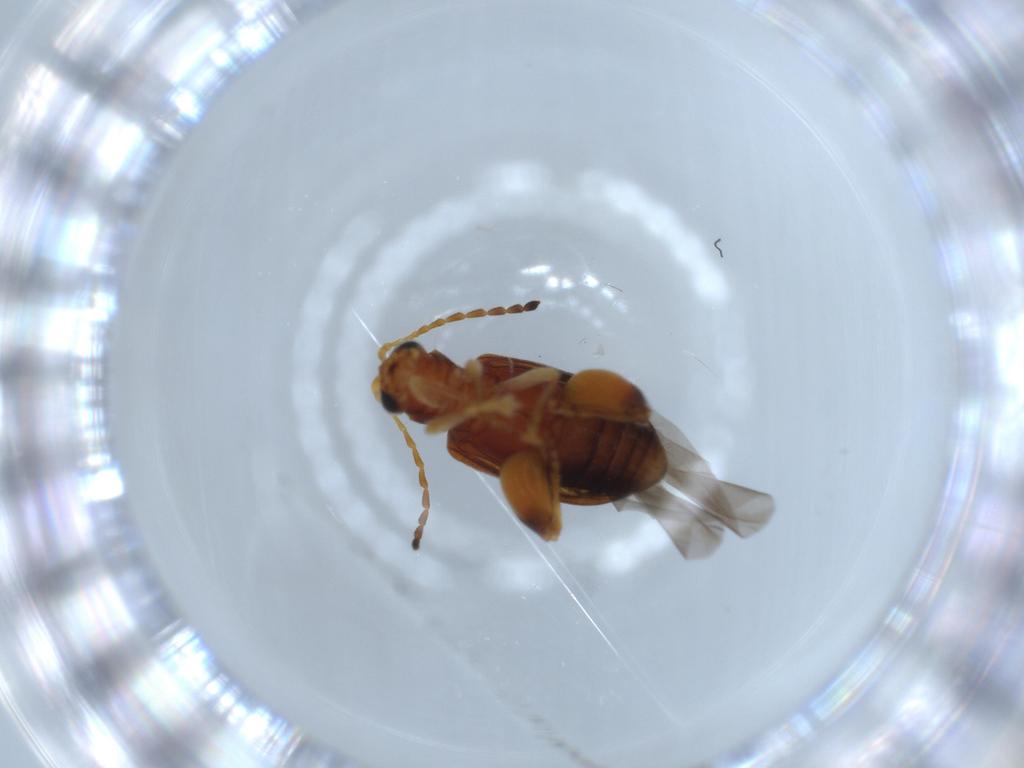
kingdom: Animalia
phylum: Arthropoda
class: Insecta
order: Coleoptera
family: Chrysomelidae
